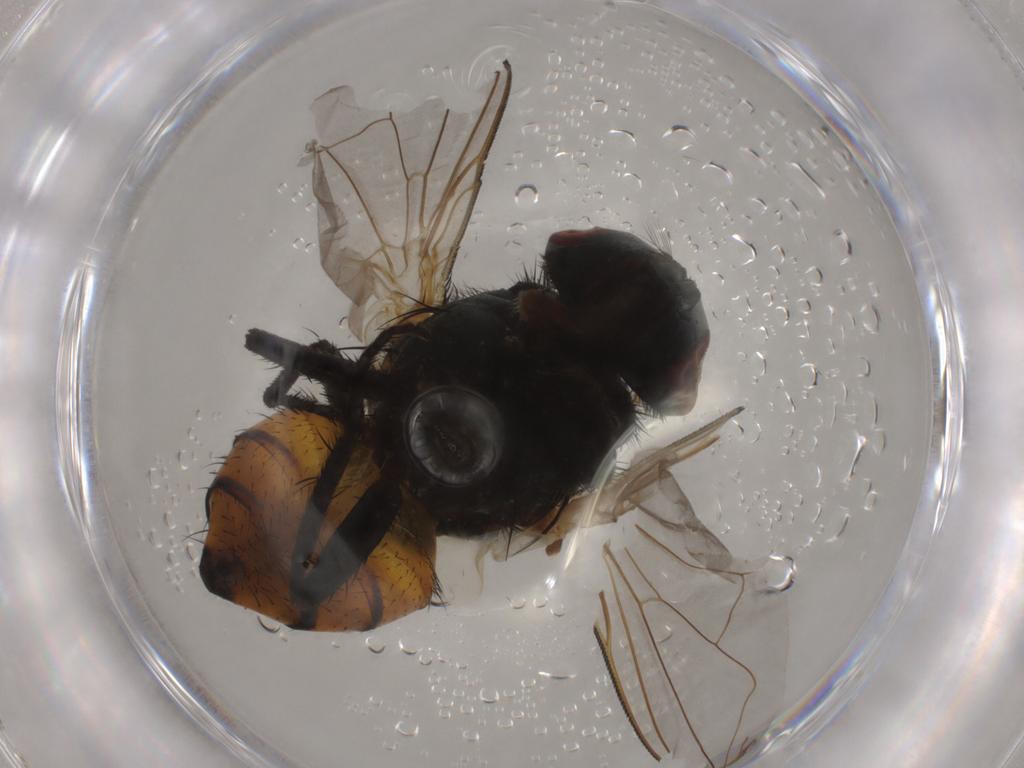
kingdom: Animalia
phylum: Arthropoda
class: Insecta
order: Diptera
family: Muscidae
